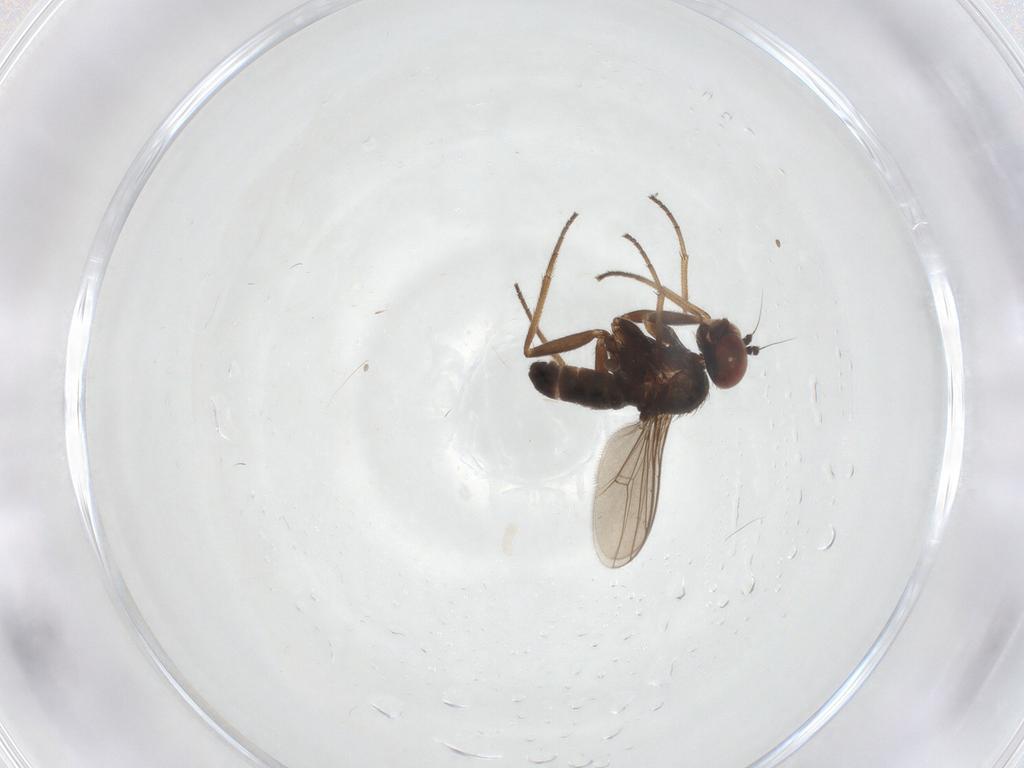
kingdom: Animalia
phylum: Arthropoda
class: Insecta
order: Diptera
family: Dolichopodidae
